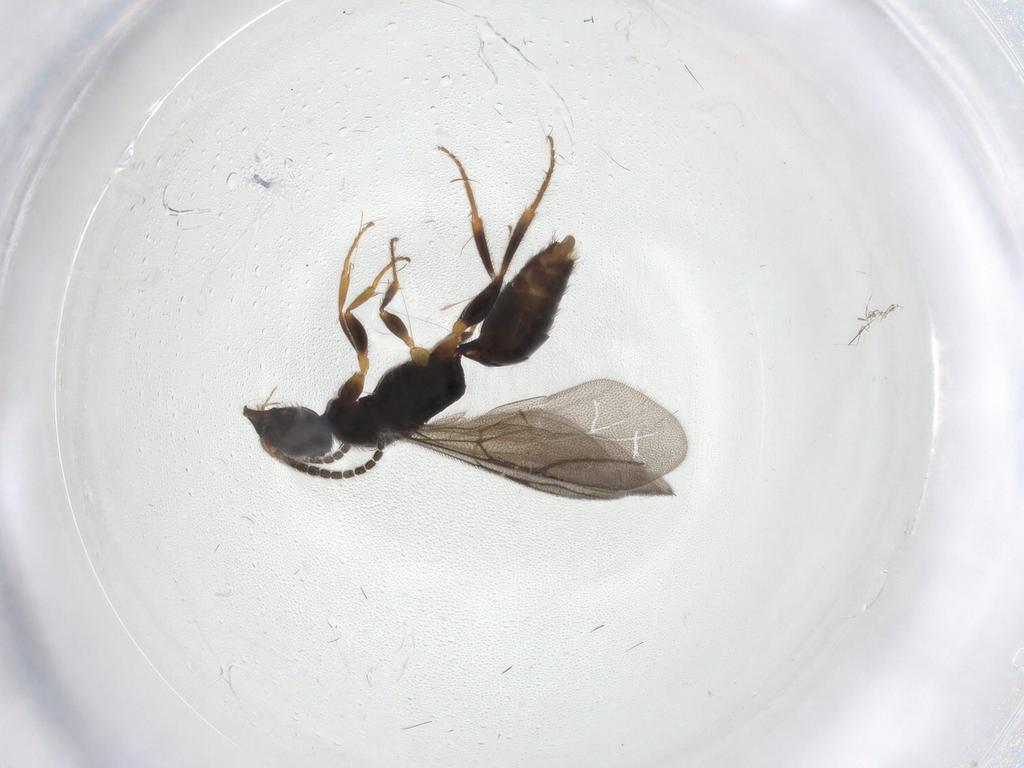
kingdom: Animalia
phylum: Arthropoda
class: Insecta
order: Hymenoptera
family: Bethylidae
